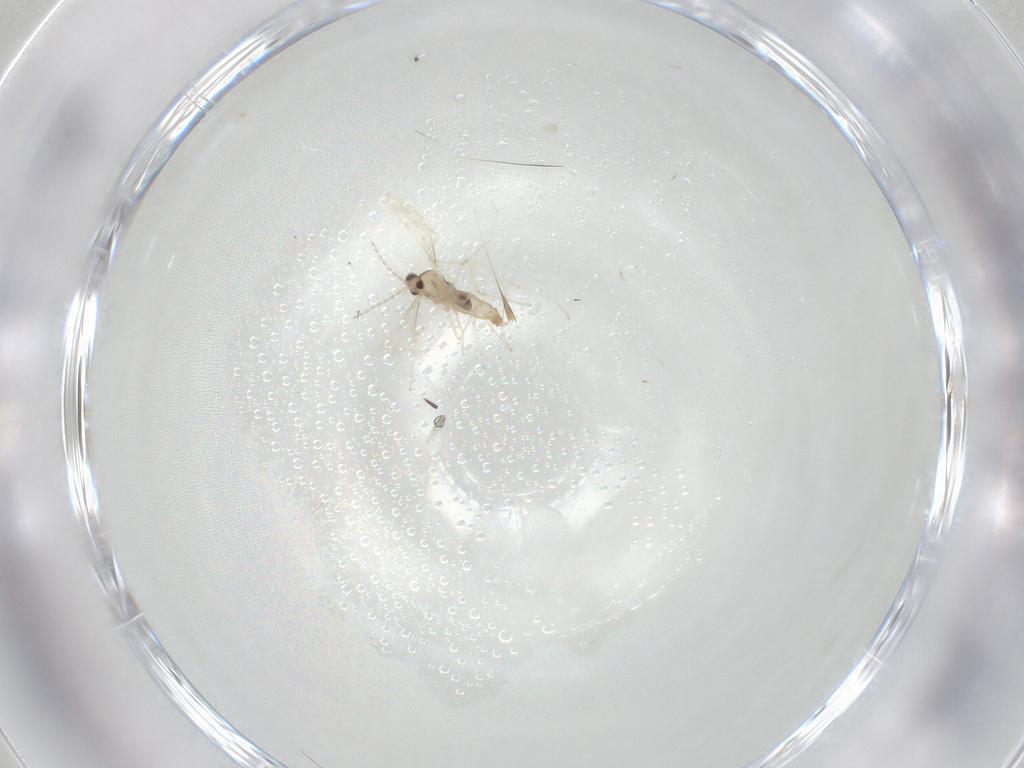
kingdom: Animalia
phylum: Arthropoda
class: Insecta
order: Diptera
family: Cecidomyiidae
